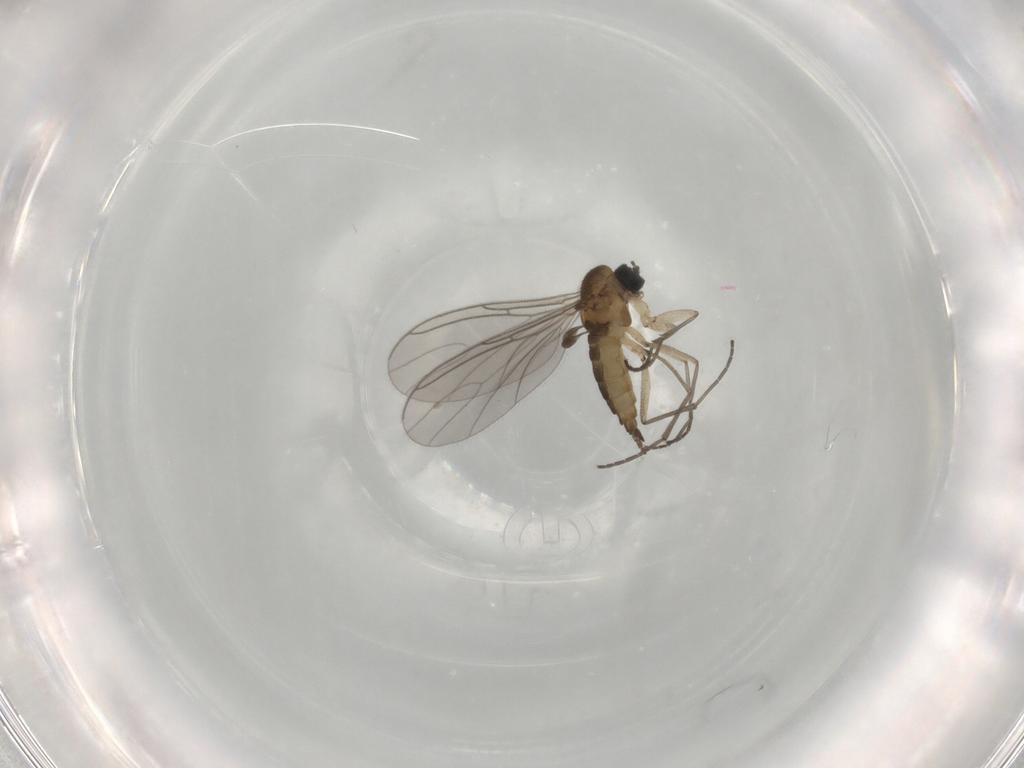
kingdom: Animalia
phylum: Arthropoda
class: Insecta
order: Diptera
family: Sciaridae
